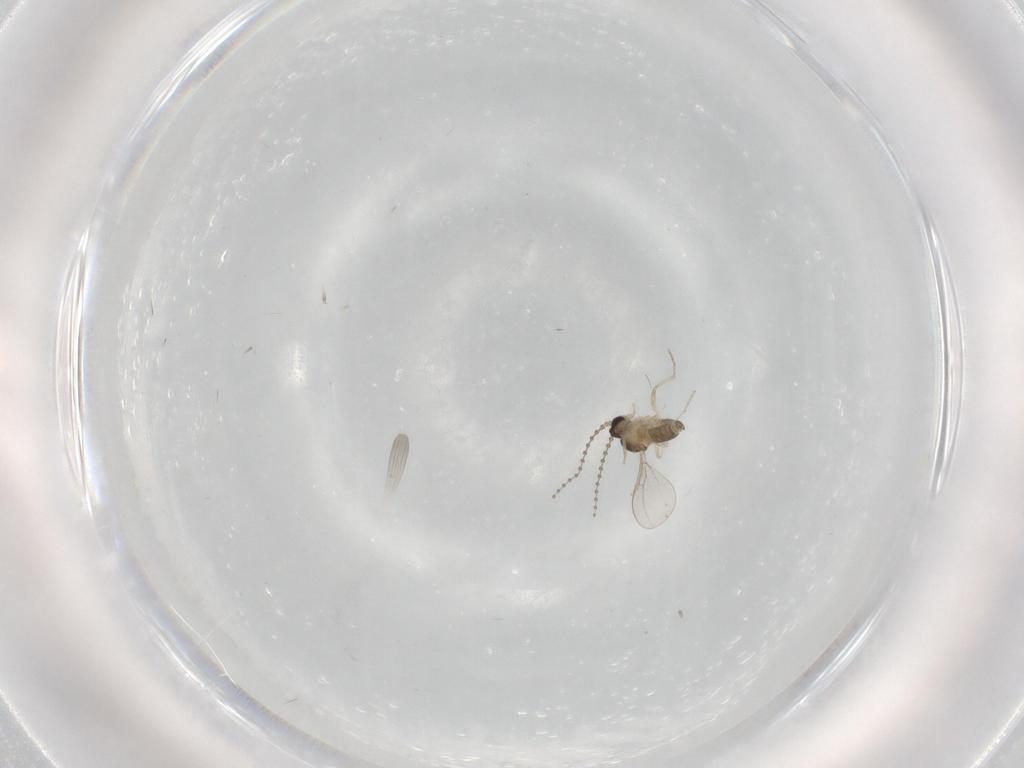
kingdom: Animalia
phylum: Arthropoda
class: Insecta
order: Diptera
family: Cecidomyiidae
